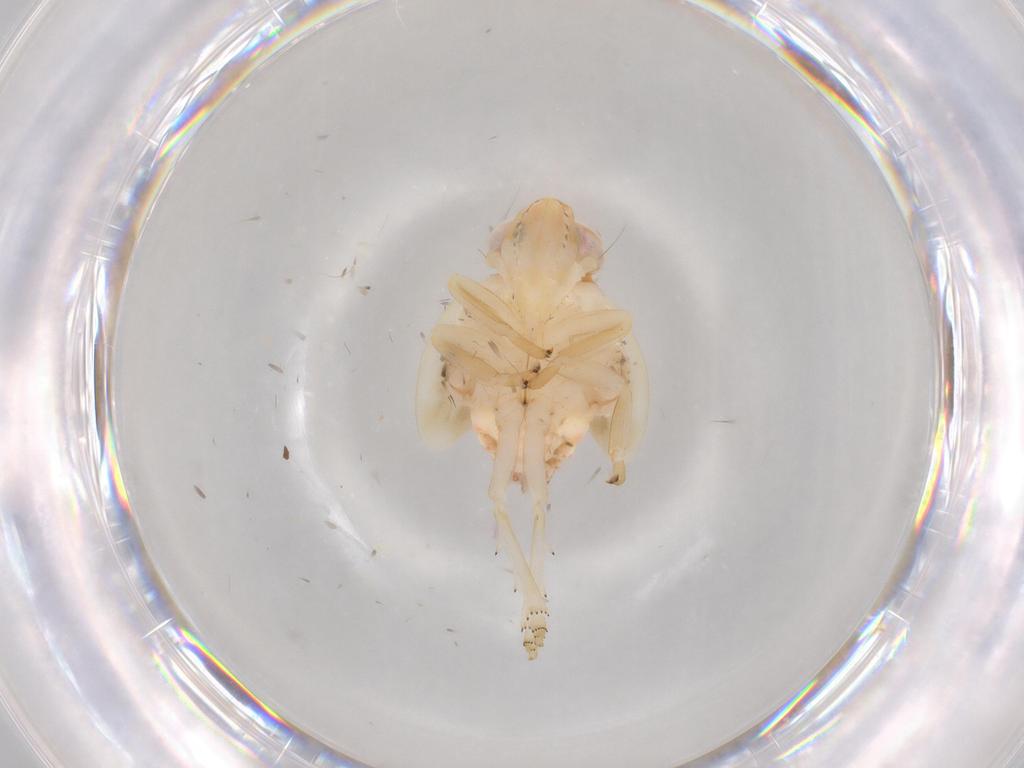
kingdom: Animalia
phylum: Arthropoda
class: Insecta
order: Hemiptera
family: Nogodinidae
